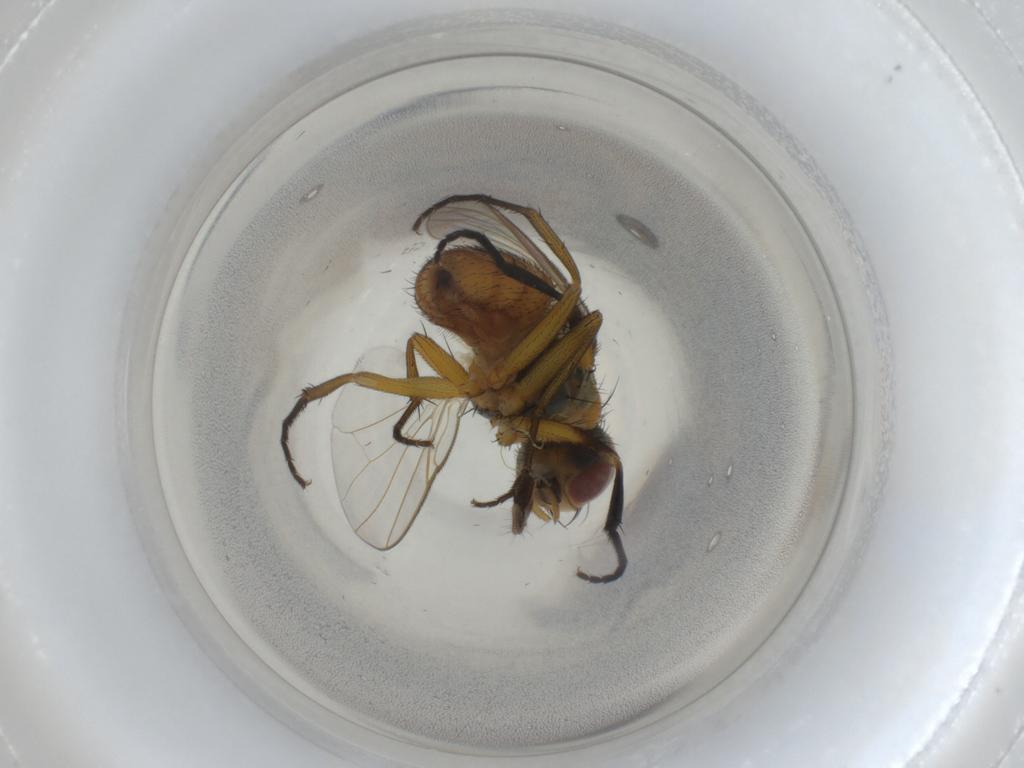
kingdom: Animalia
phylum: Arthropoda
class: Insecta
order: Diptera
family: Muscidae
